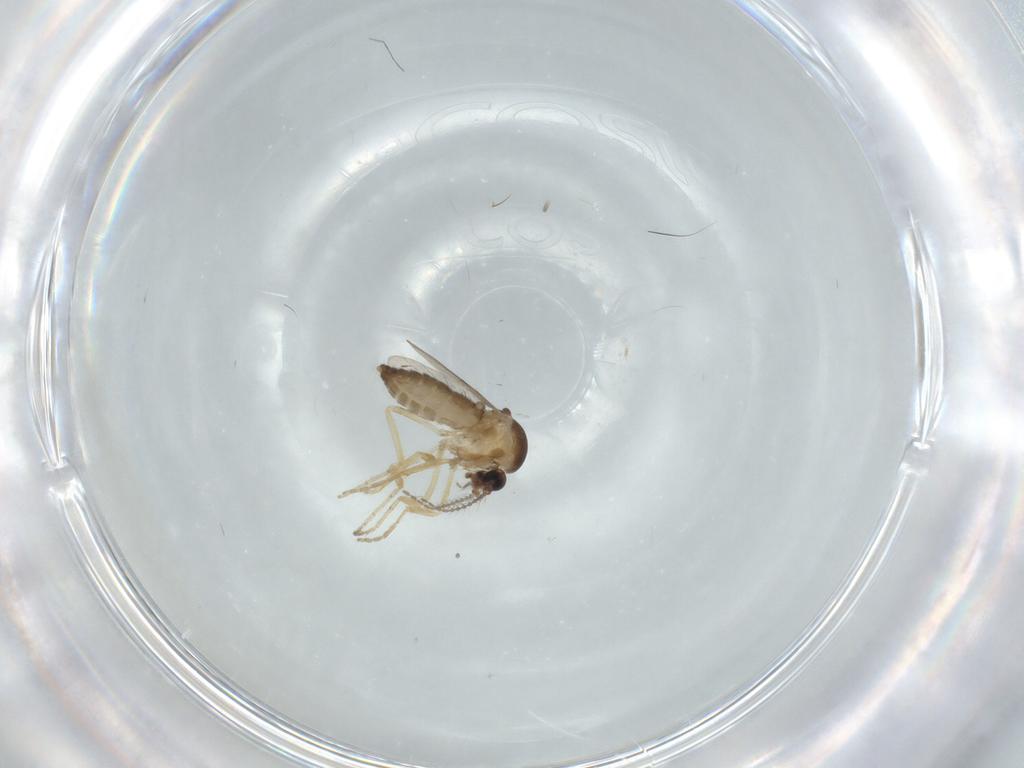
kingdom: Animalia
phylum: Arthropoda
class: Insecta
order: Diptera
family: Ceratopogonidae
